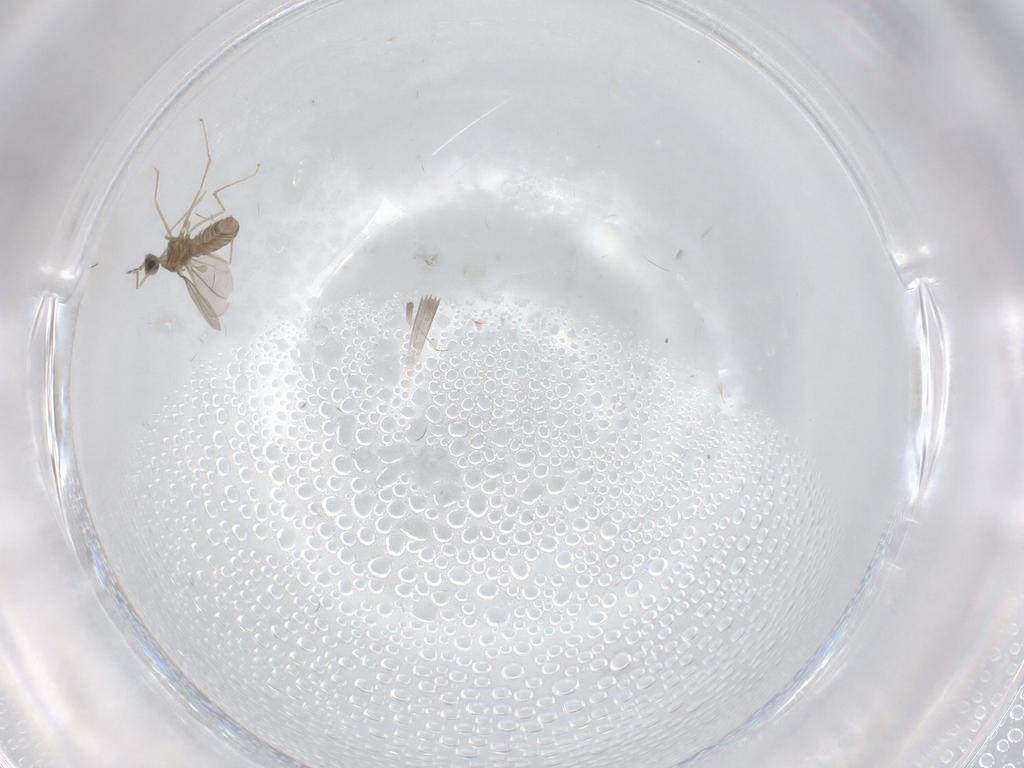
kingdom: Animalia
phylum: Arthropoda
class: Insecta
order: Diptera
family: Cecidomyiidae
